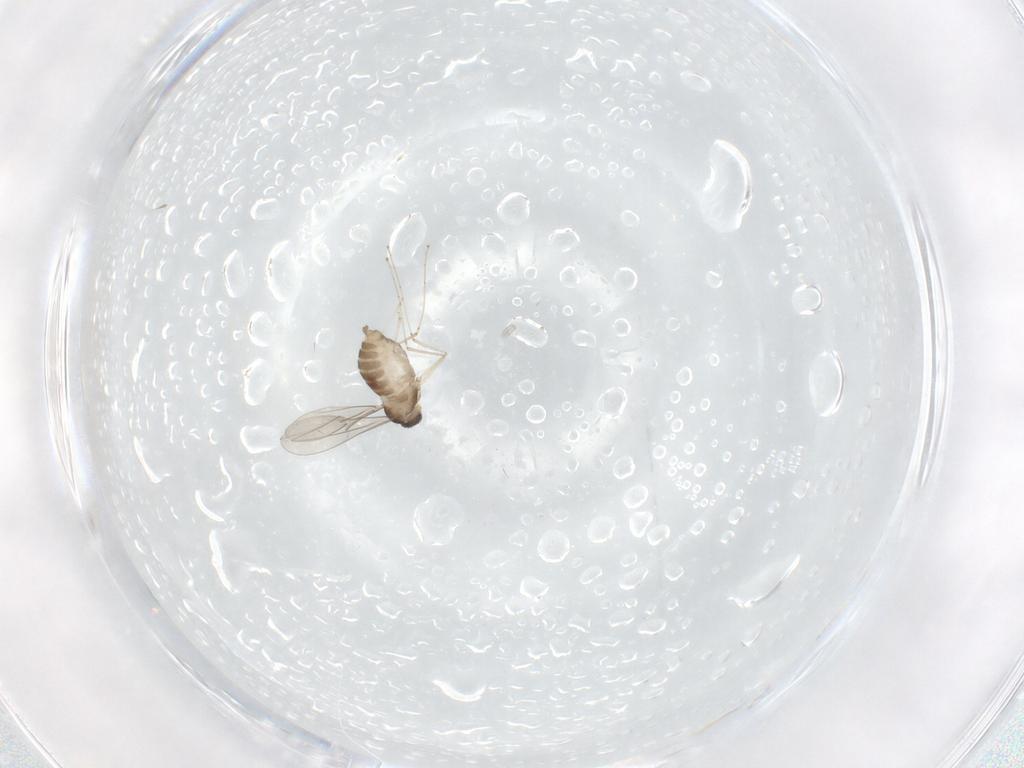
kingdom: Animalia
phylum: Arthropoda
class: Insecta
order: Diptera
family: Cecidomyiidae
